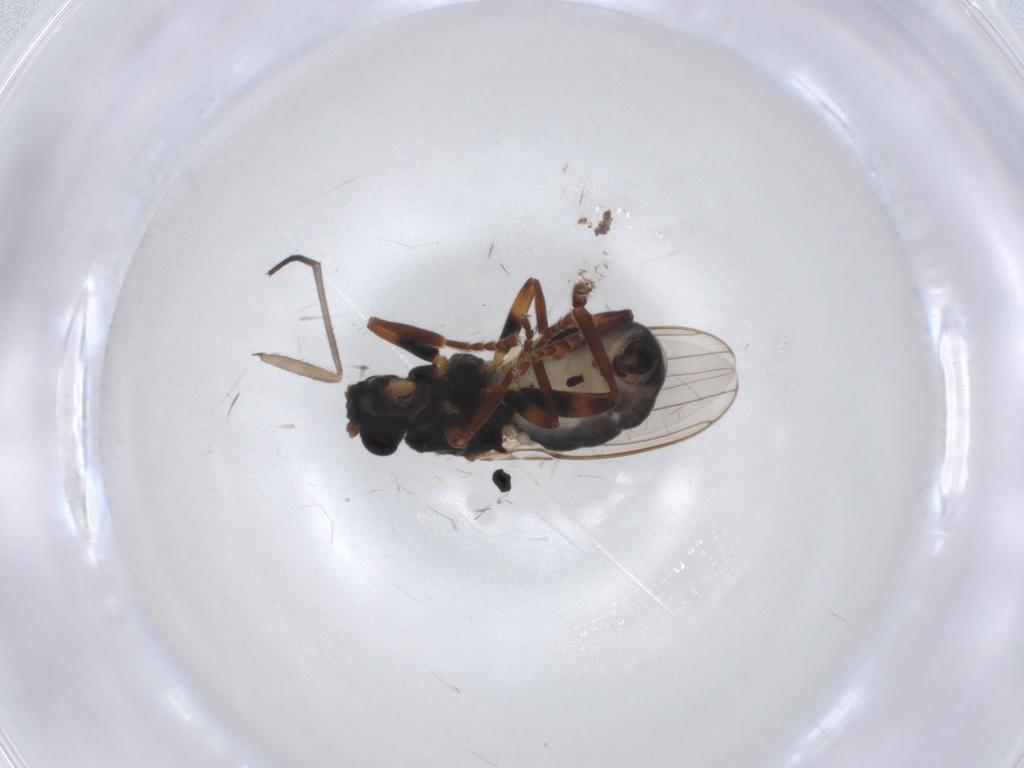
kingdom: Animalia
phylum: Arthropoda
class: Insecta
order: Diptera
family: Sphaeroceridae
